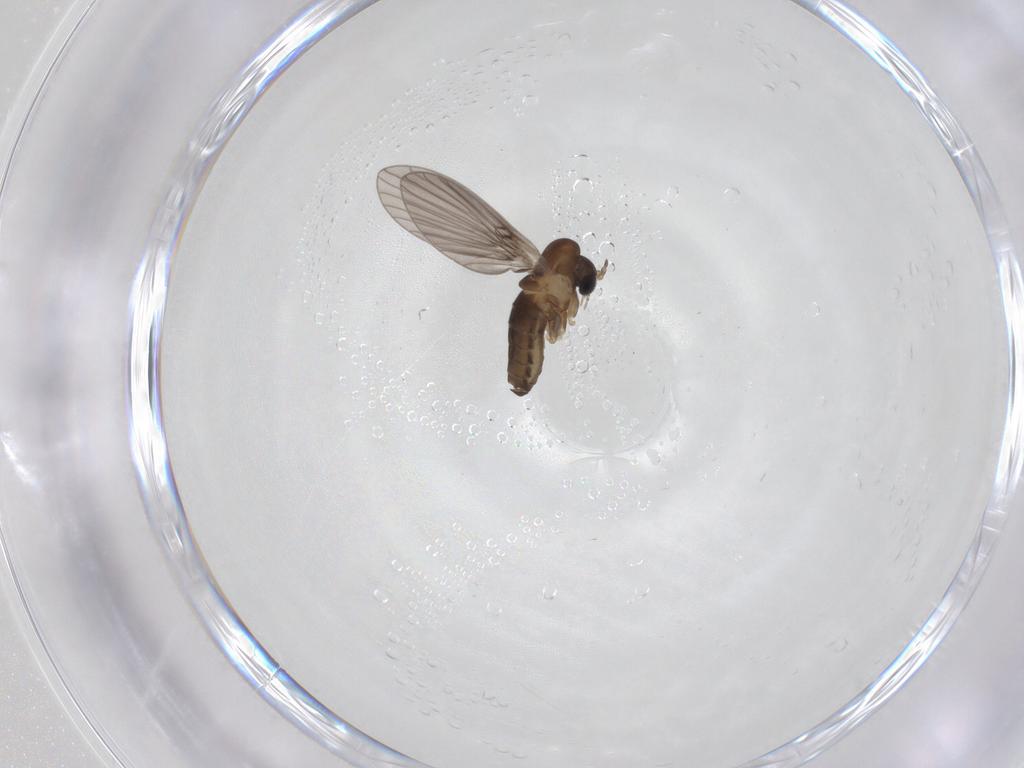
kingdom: Animalia
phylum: Arthropoda
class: Insecta
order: Diptera
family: Psychodidae
